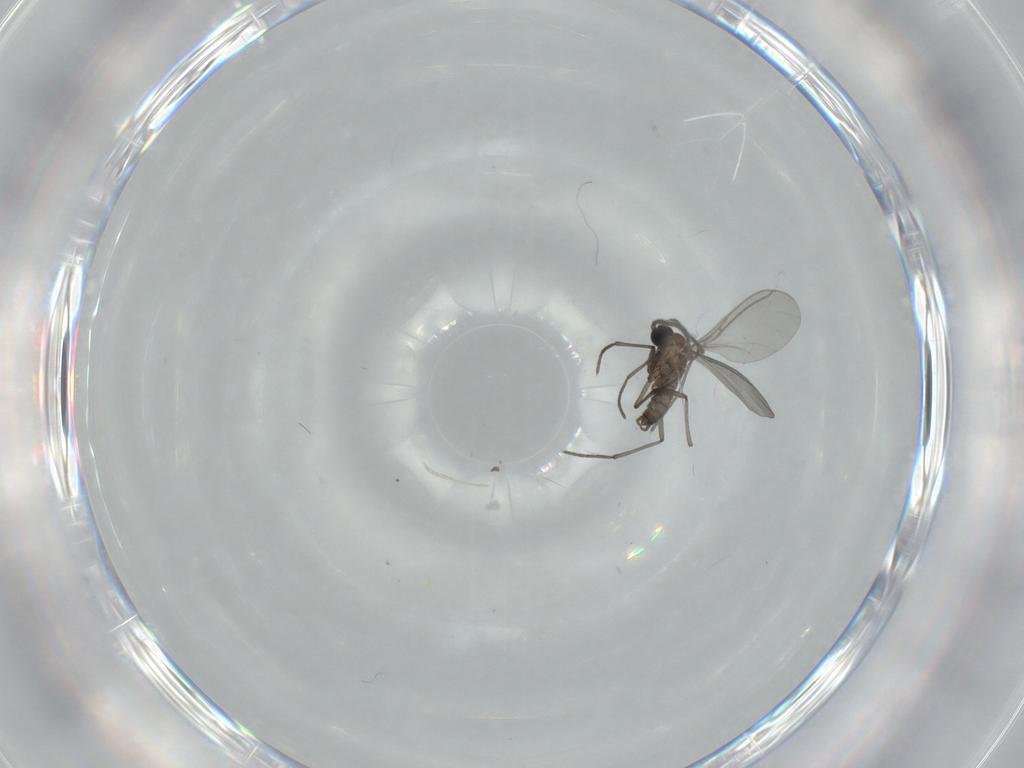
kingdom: Animalia
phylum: Arthropoda
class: Insecta
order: Diptera
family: Sciaridae
